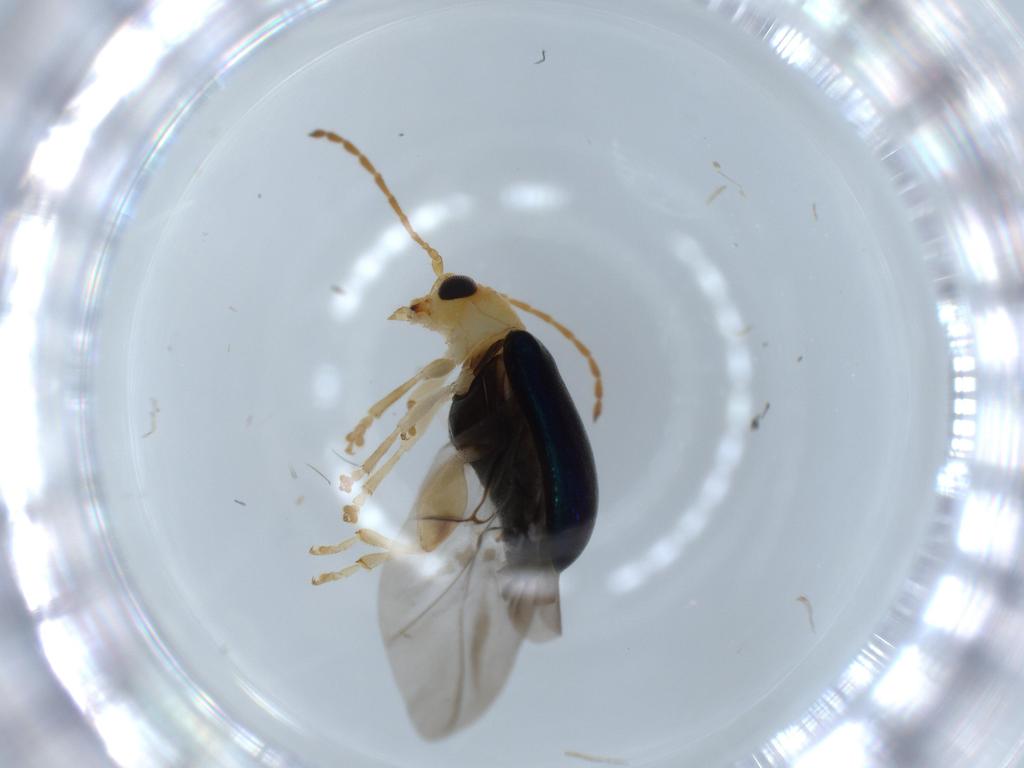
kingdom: Animalia
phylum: Arthropoda
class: Insecta
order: Coleoptera
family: Chrysomelidae
